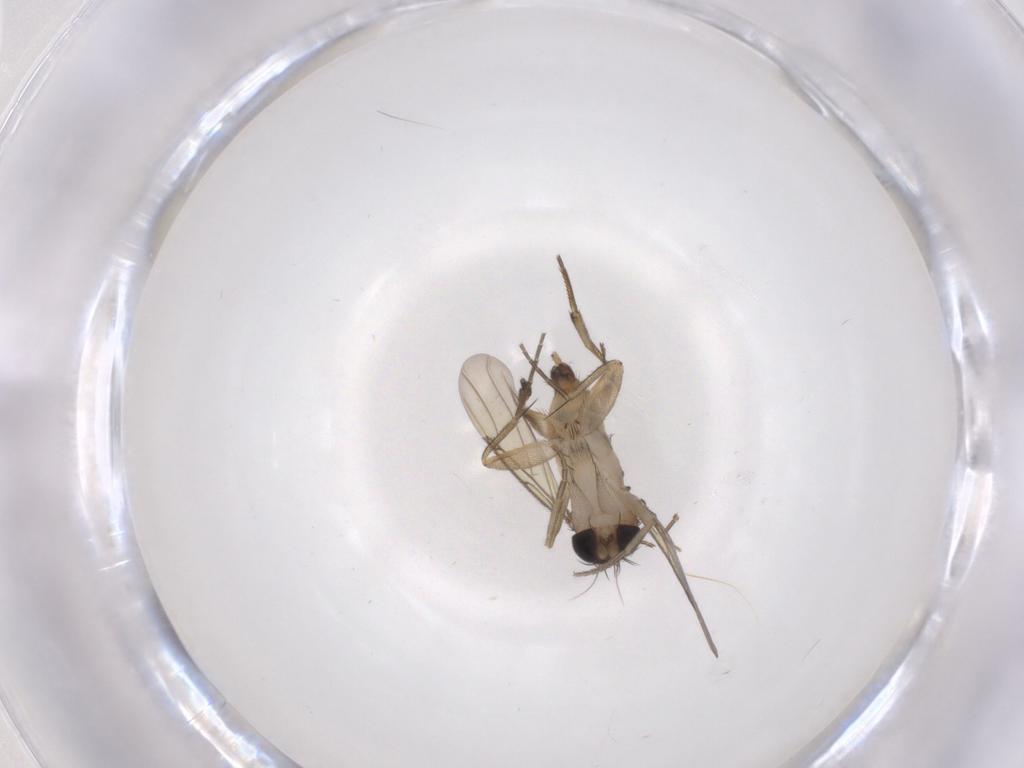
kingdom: Animalia
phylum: Arthropoda
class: Insecta
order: Diptera
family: Phoridae
